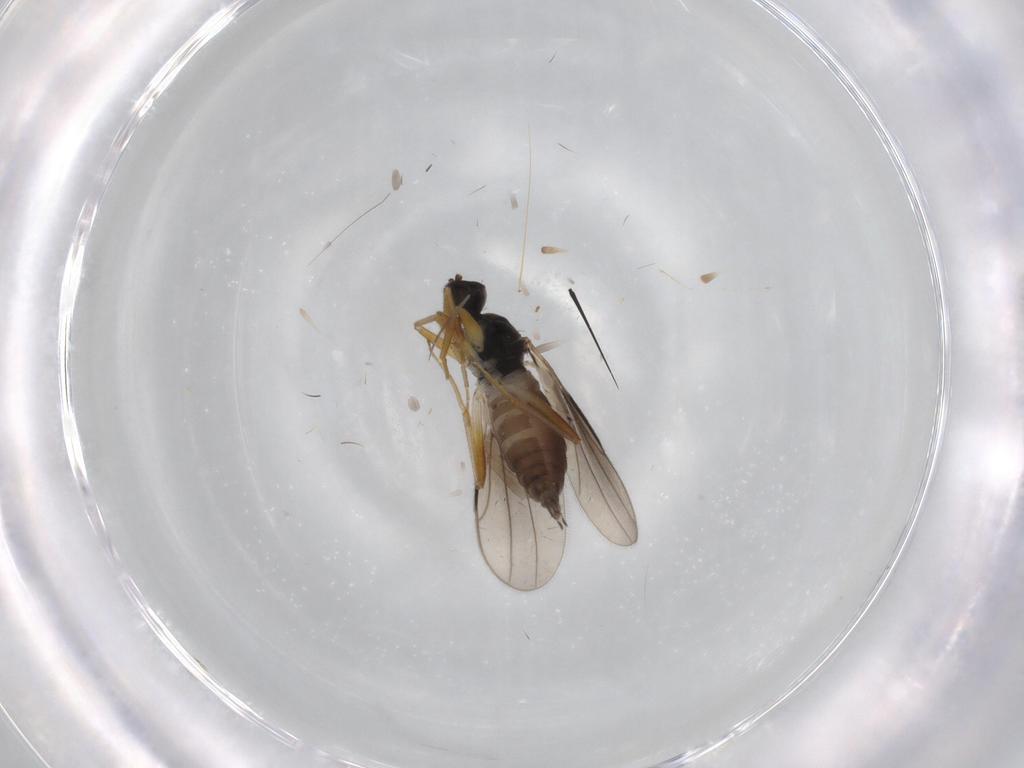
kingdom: Animalia
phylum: Arthropoda
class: Insecta
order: Diptera
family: Hybotidae
